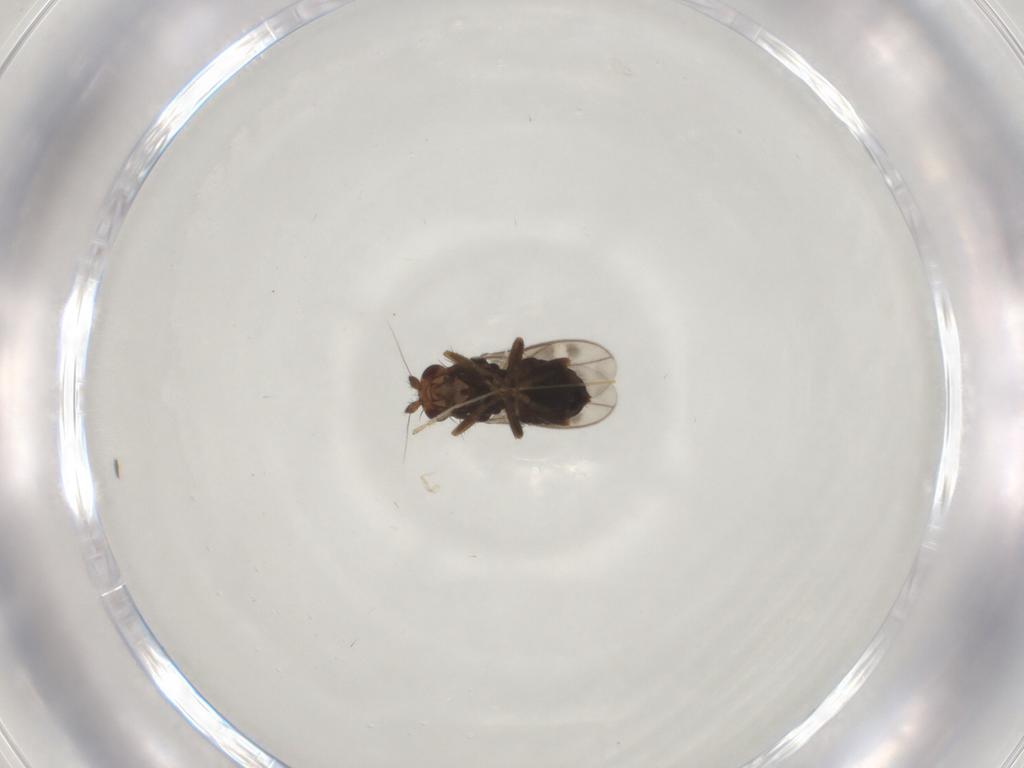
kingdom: Animalia
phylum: Arthropoda
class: Insecta
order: Diptera
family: Sphaeroceridae
